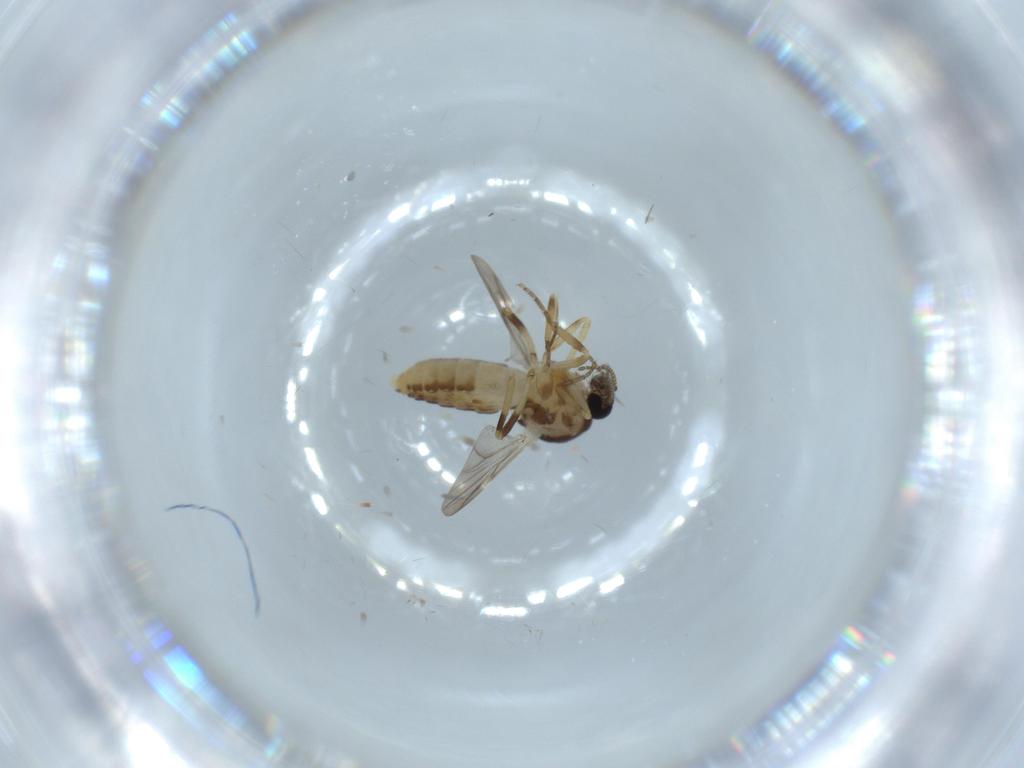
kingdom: Animalia
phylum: Arthropoda
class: Insecta
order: Diptera
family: Ceratopogonidae
